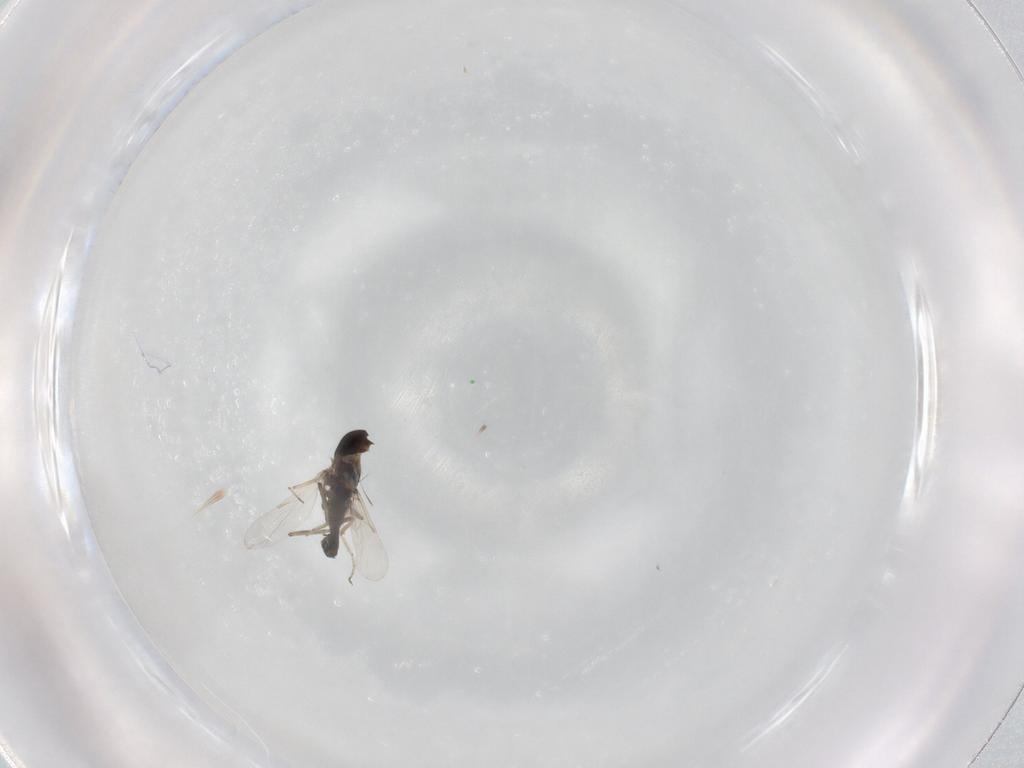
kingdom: Animalia
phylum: Arthropoda
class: Insecta
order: Diptera
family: Ceratopogonidae
